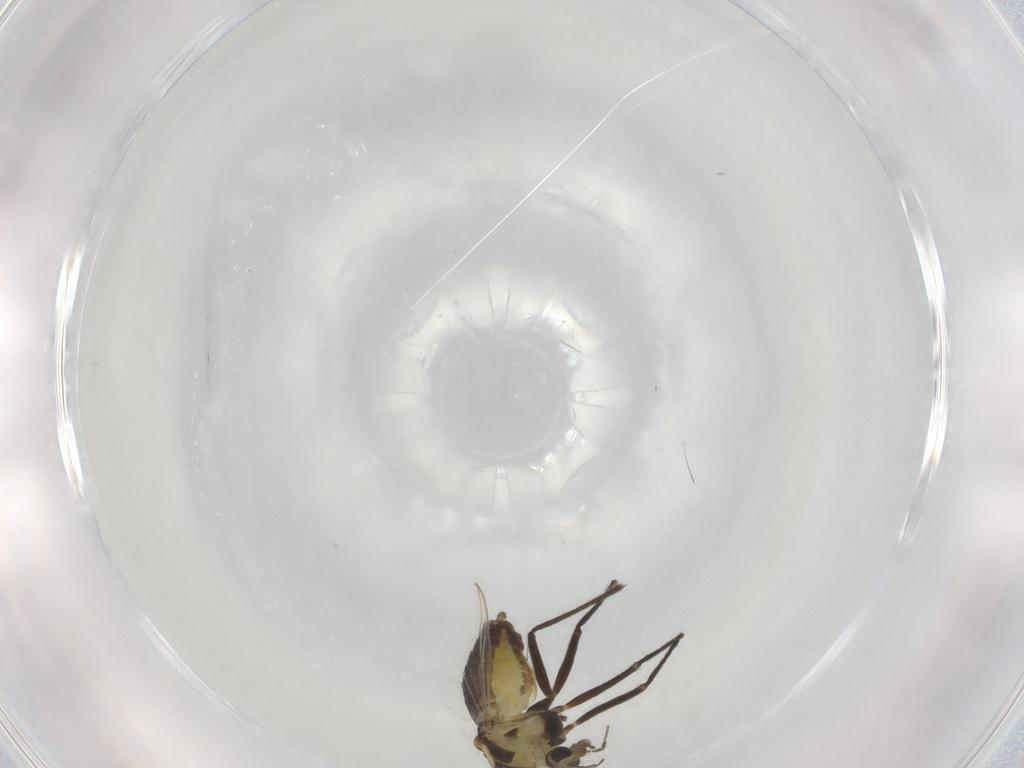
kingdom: Animalia
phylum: Arthropoda
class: Insecta
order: Diptera
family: Chironomidae
